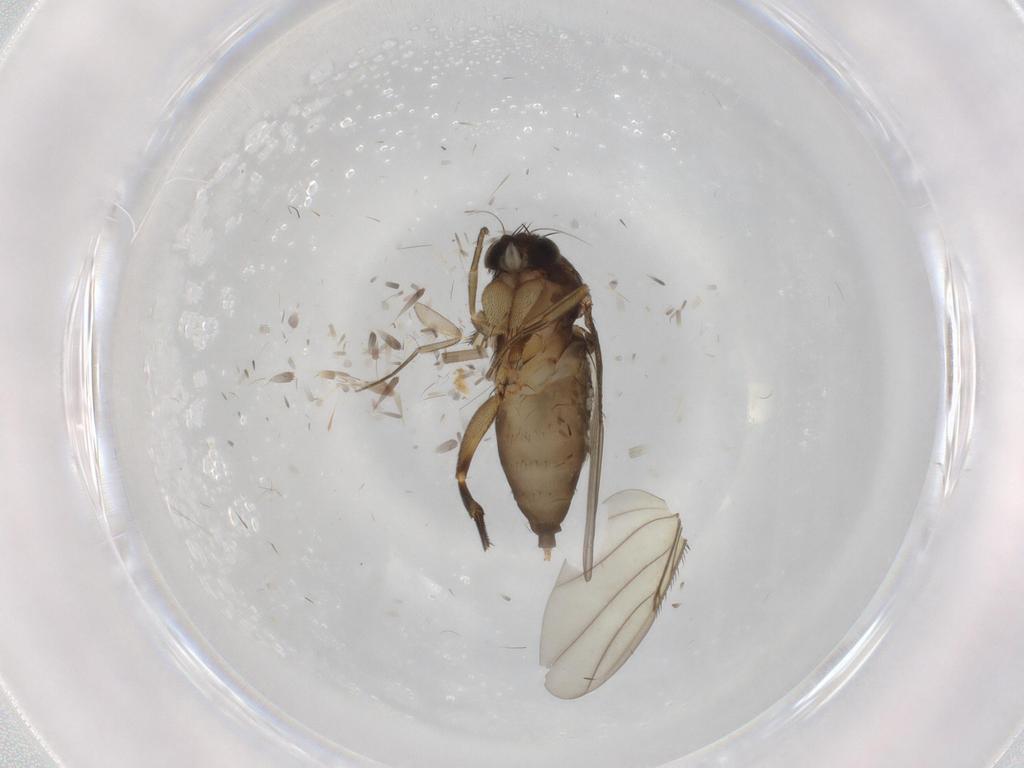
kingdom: Animalia
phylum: Arthropoda
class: Insecta
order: Diptera
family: Phoridae
